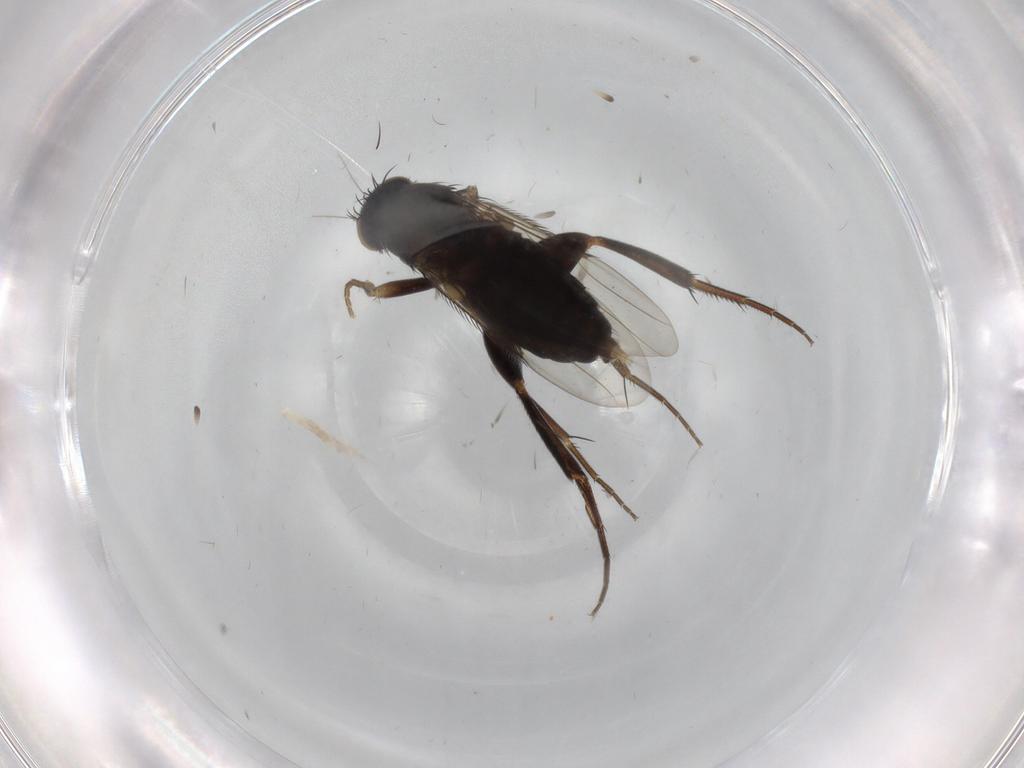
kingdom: Animalia
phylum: Arthropoda
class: Insecta
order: Diptera
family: Phoridae
